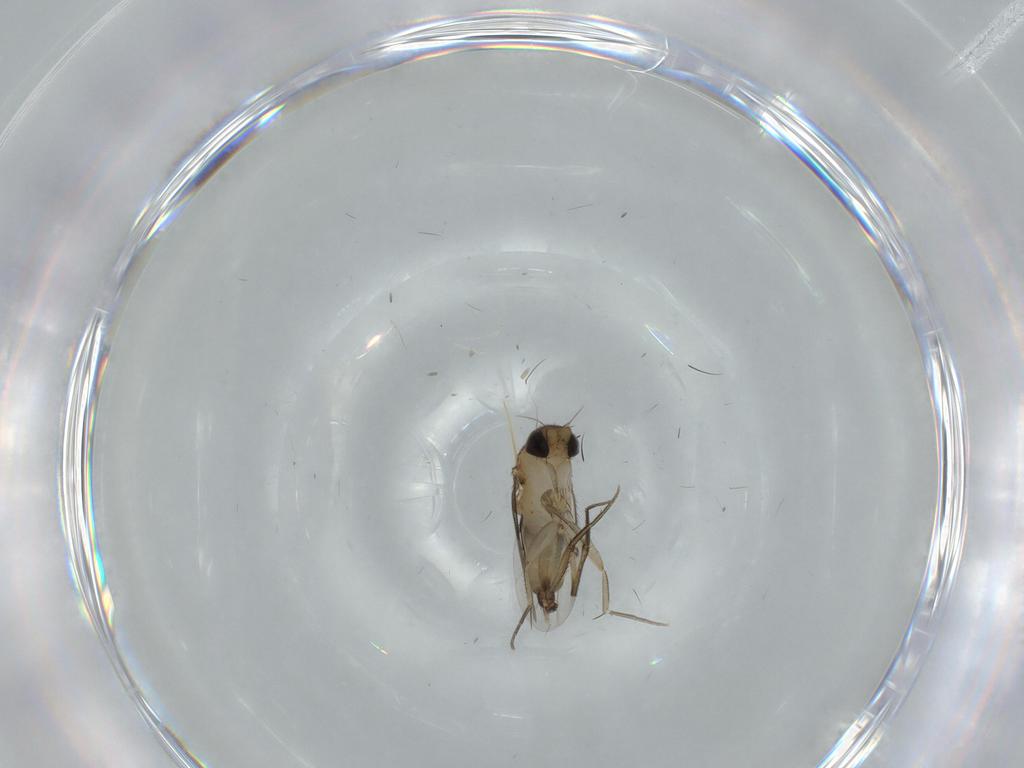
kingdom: Animalia
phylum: Arthropoda
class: Insecta
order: Diptera
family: Phoridae
